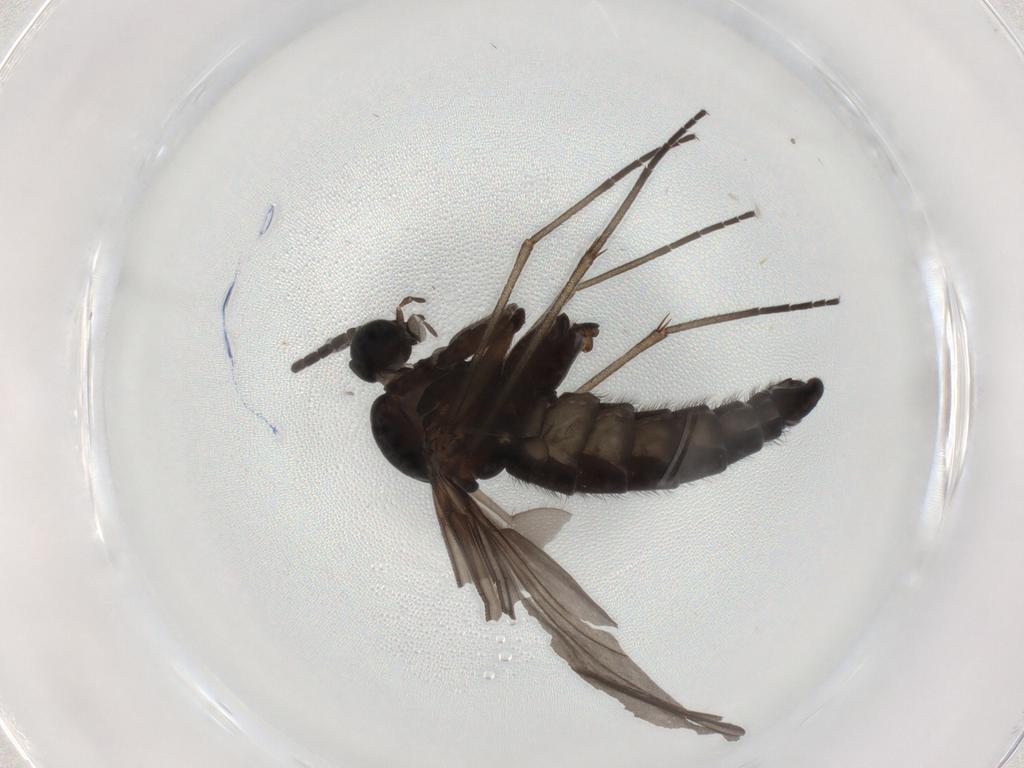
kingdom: Animalia
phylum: Arthropoda
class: Insecta
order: Diptera
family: Sciaridae
